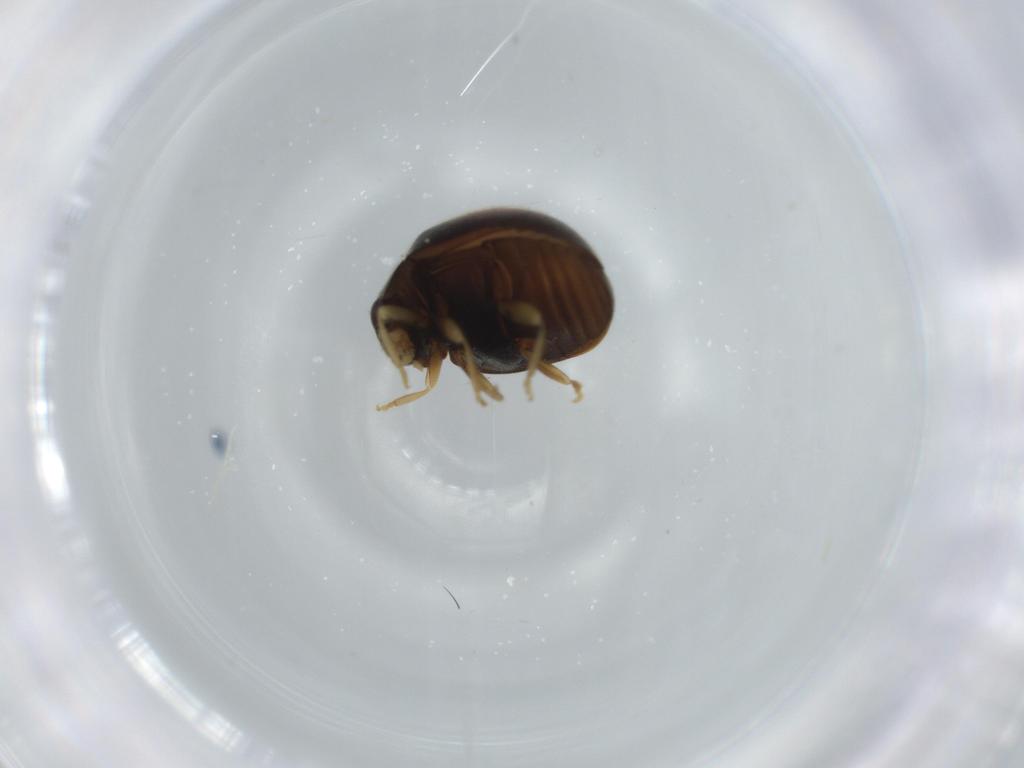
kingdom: Animalia
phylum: Arthropoda
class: Insecta
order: Coleoptera
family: Coccinellidae
